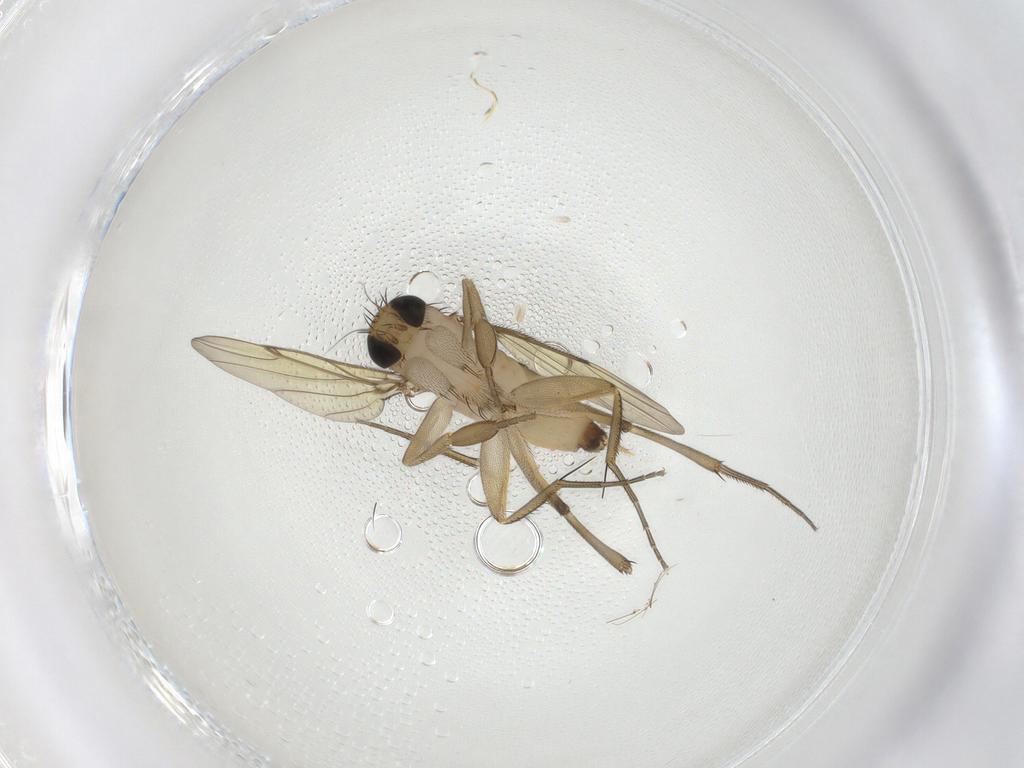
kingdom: Animalia
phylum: Arthropoda
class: Insecta
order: Diptera
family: Phoridae
